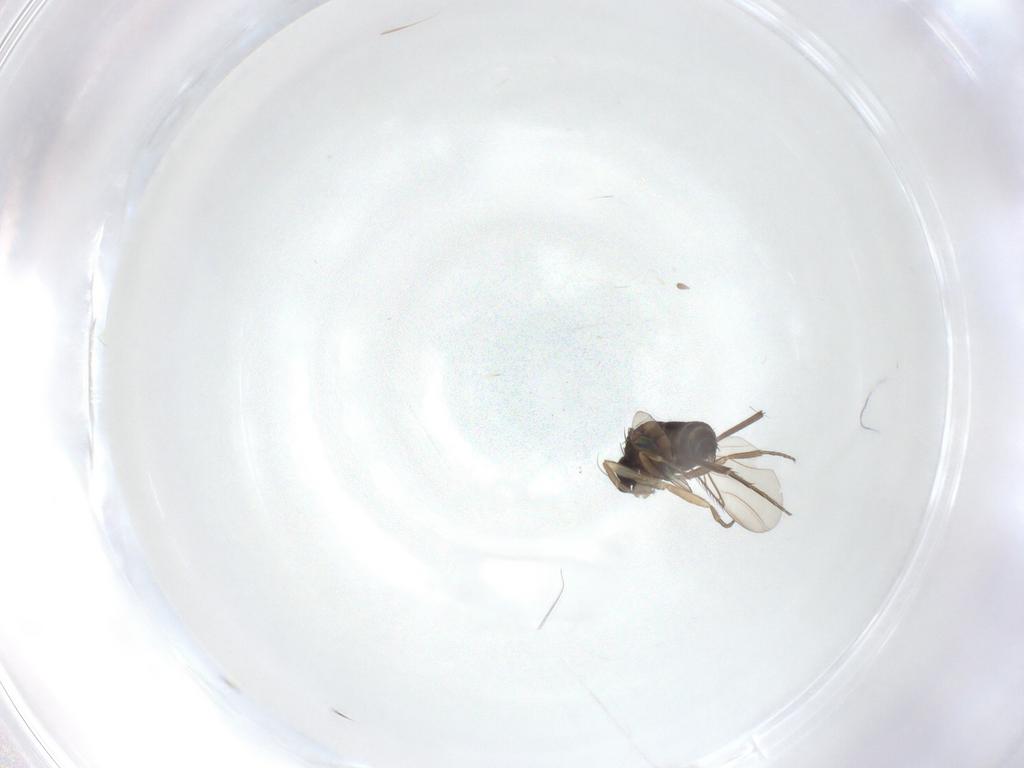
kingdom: Animalia
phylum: Arthropoda
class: Insecta
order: Diptera
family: Phoridae
